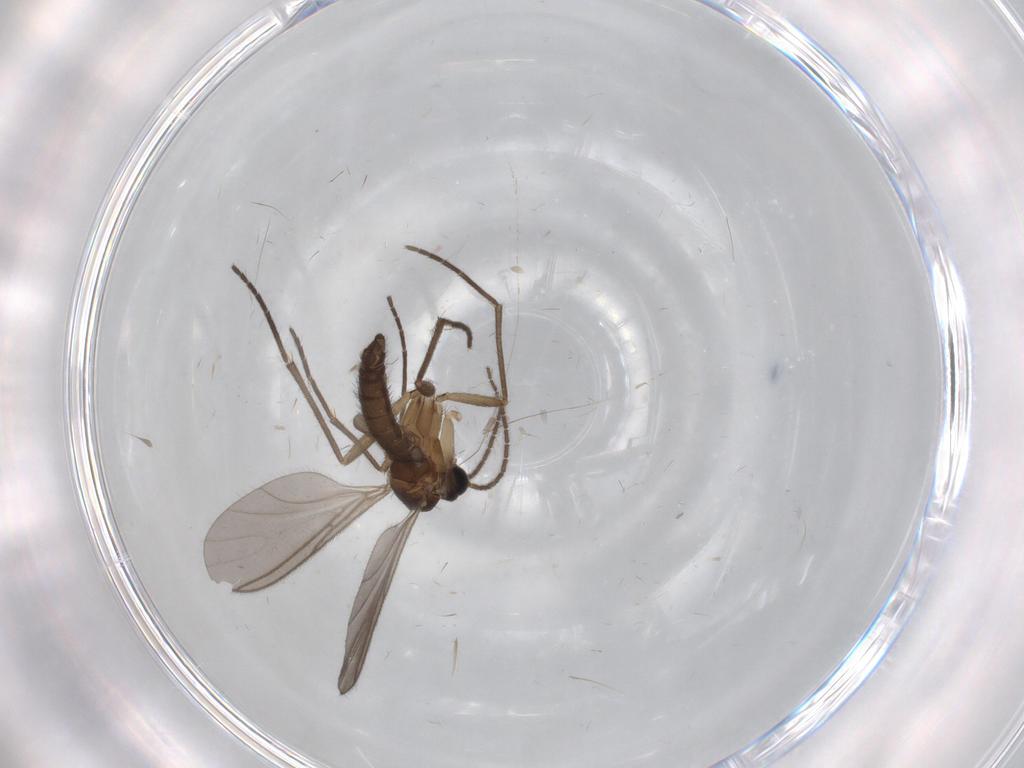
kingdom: Animalia
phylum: Arthropoda
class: Insecta
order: Diptera
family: Sciaridae
